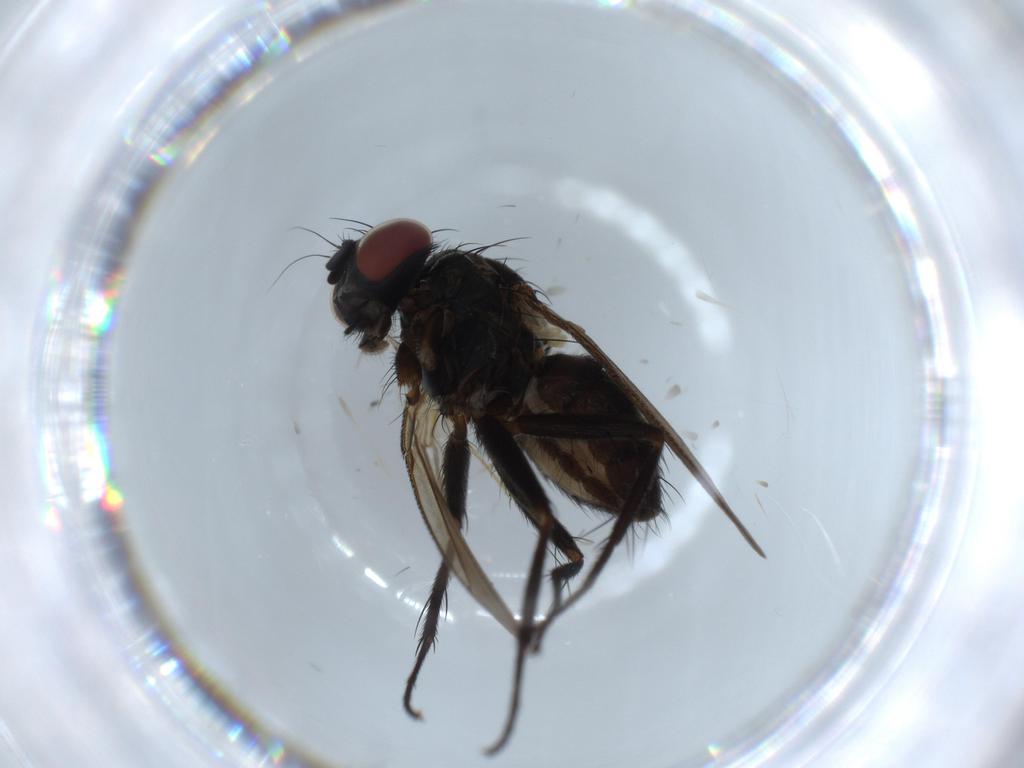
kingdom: Animalia
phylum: Arthropoda
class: Insecta
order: Diptera
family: Muscidae
